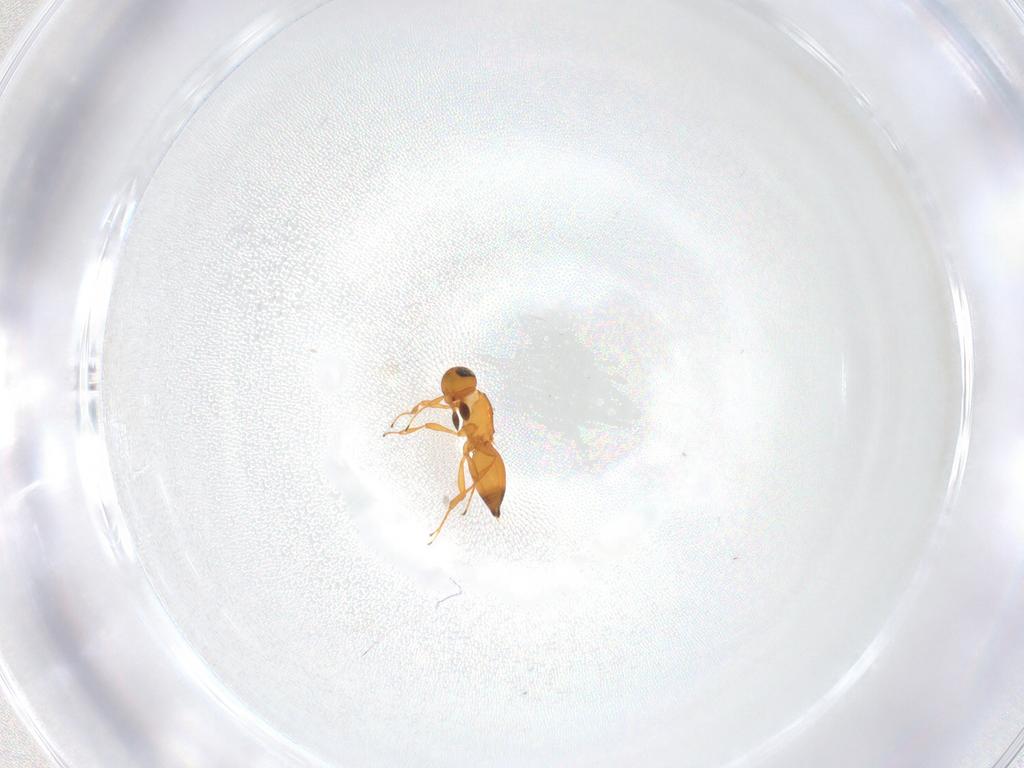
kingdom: Animalia
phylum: Arthropoda
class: Insecta
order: Hymenoptera
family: Platygastridae
